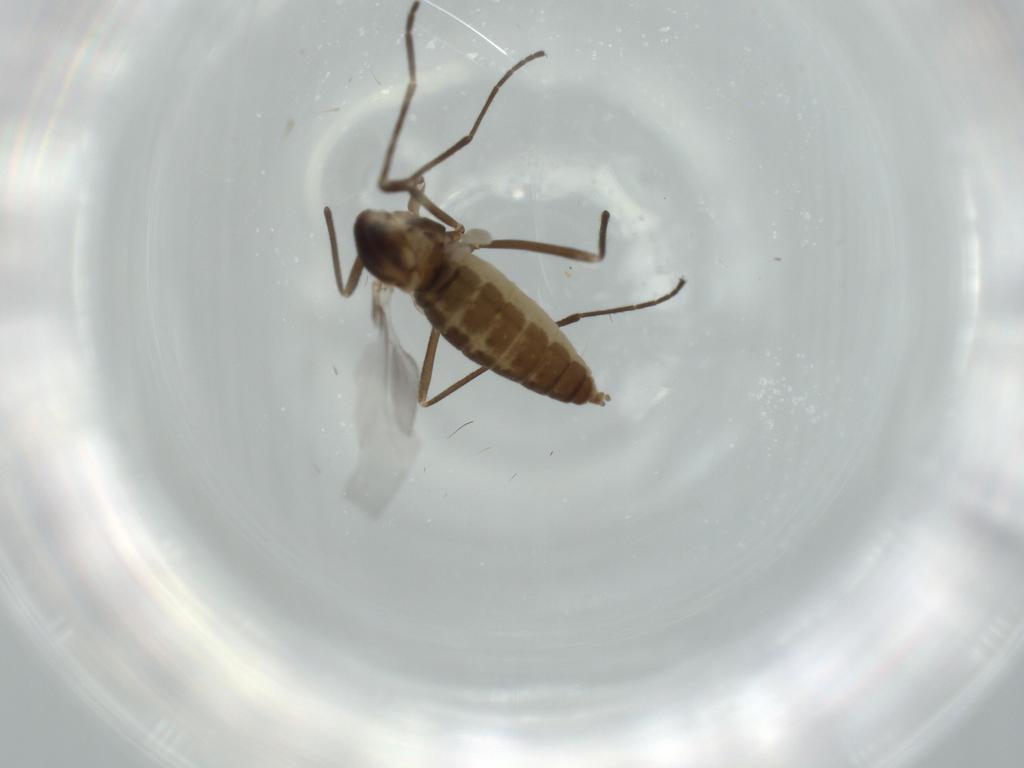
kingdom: Animalia
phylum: Arthropoda
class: Insecta
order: Diptera
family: Cecidomyiidae
